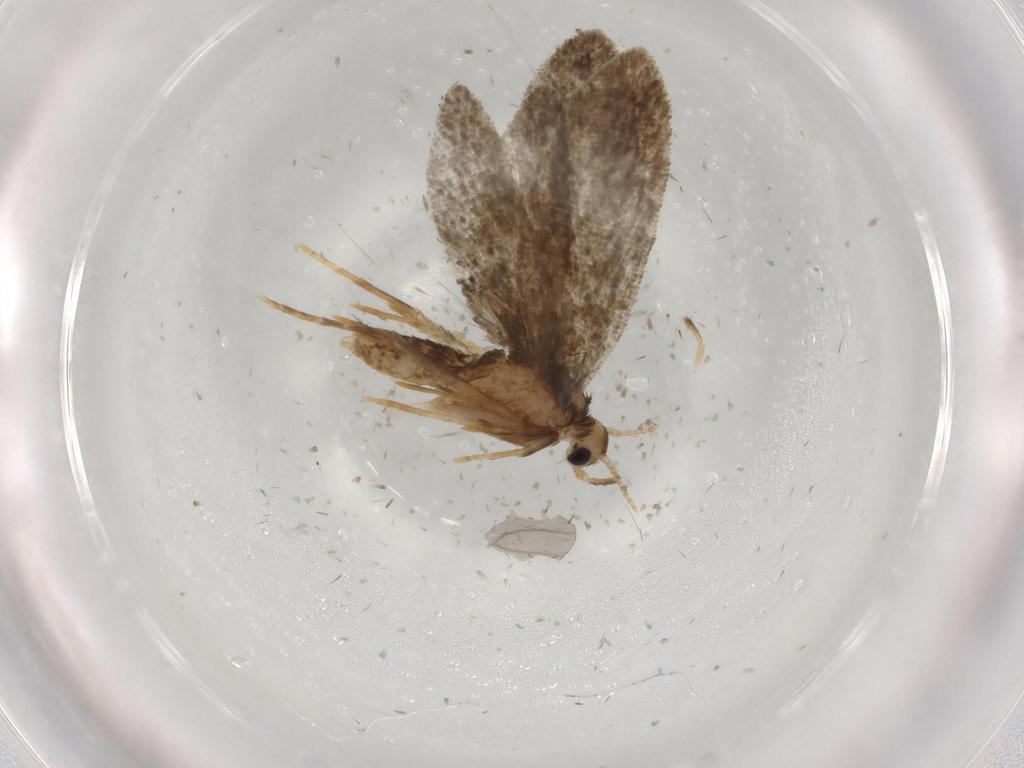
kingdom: Animalia
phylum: Arthropoda
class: Insecta
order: Lepidoptera
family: Psychidae
